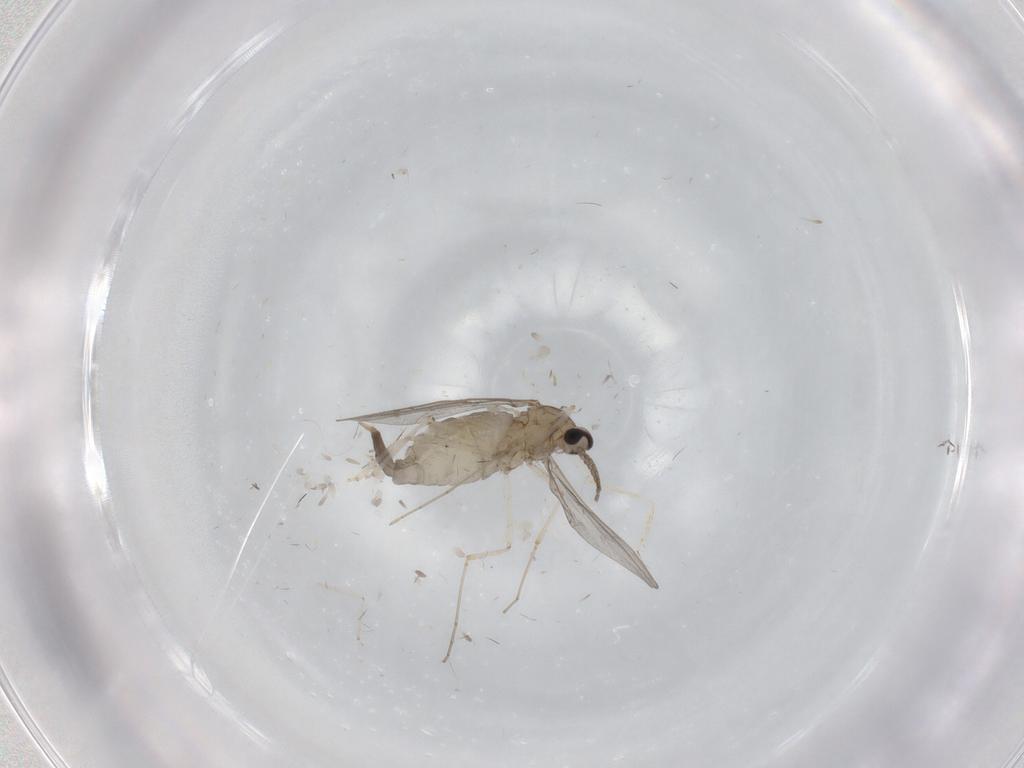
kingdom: Animalia
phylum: Arthropoda
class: Insecta
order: Diptera
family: Cecidomyiidae
